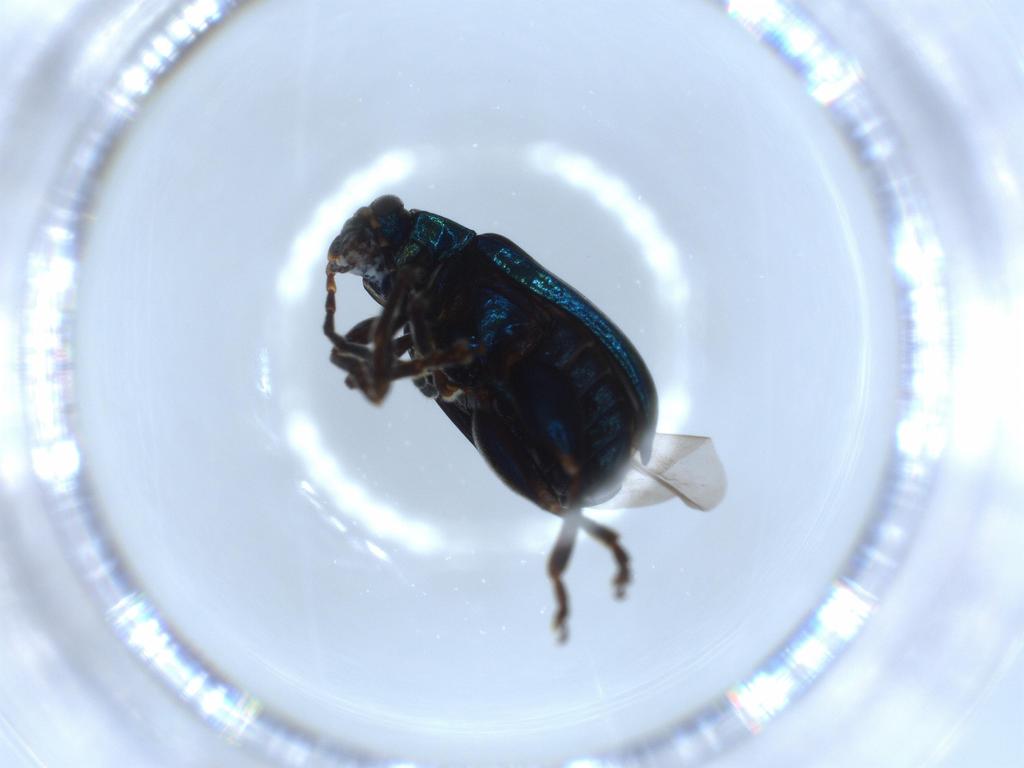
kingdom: Animalia
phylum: Arthropoda
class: Insecta
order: Coleoptera
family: Chrysomelidae
